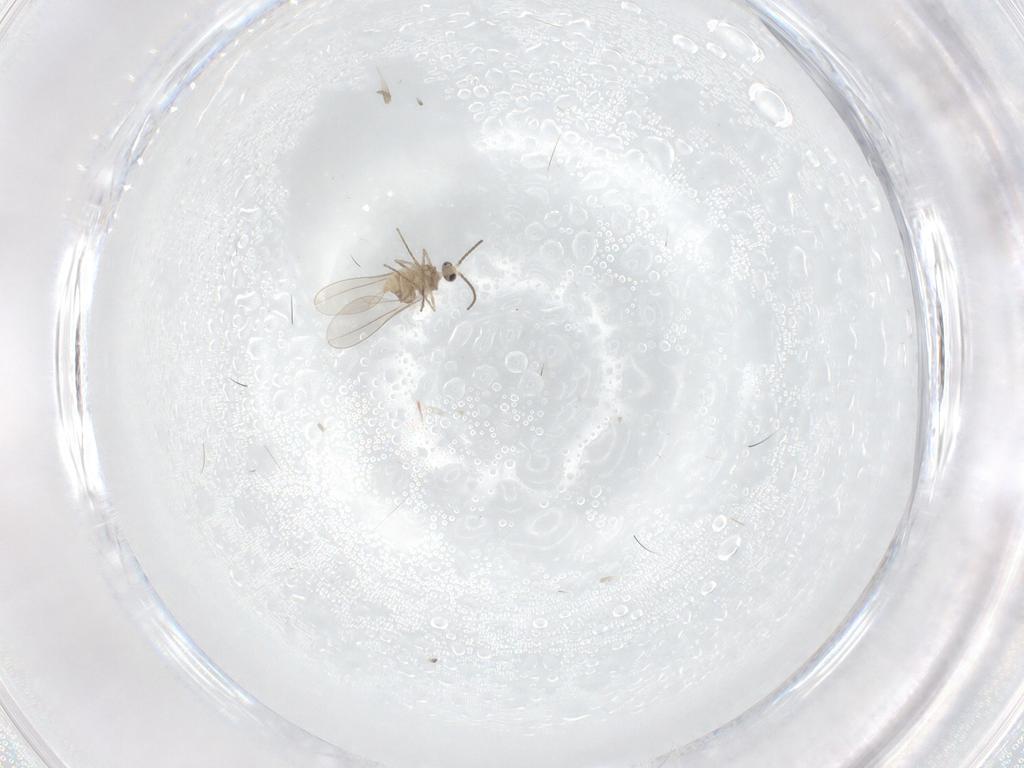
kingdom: Animalia
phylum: Arthropoda
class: Insecta
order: Diptera
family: Cecidomyiidae
